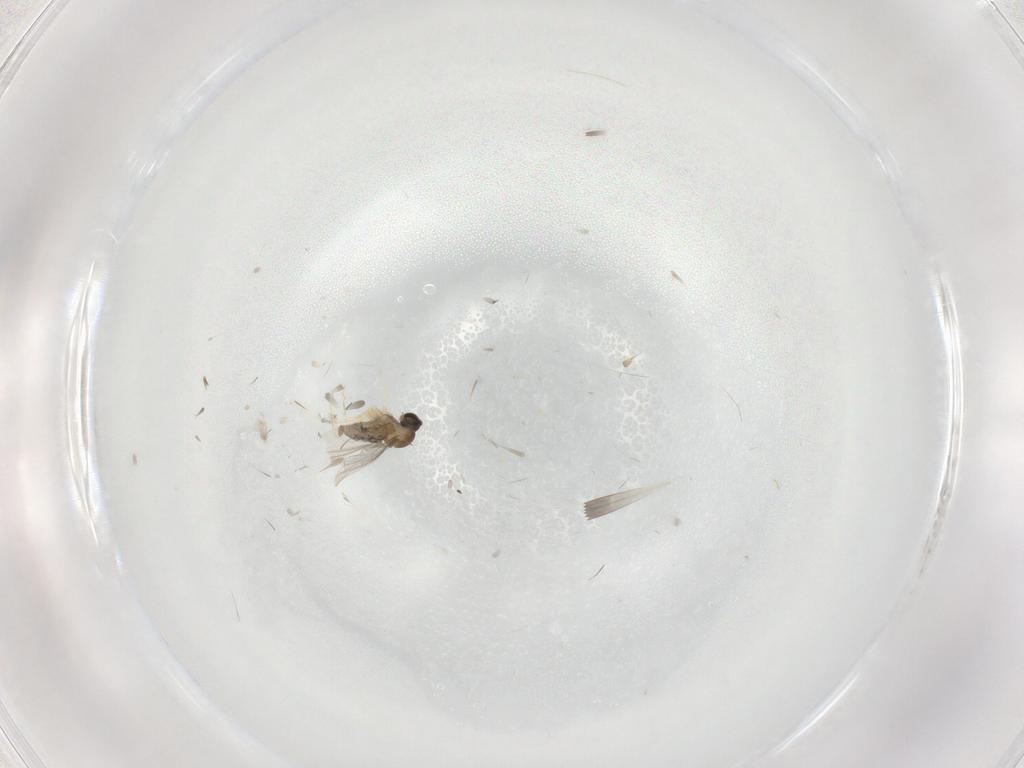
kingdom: Animalia
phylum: Arthropoda
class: Insecta
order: Diptera
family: Cecidomyiidae
